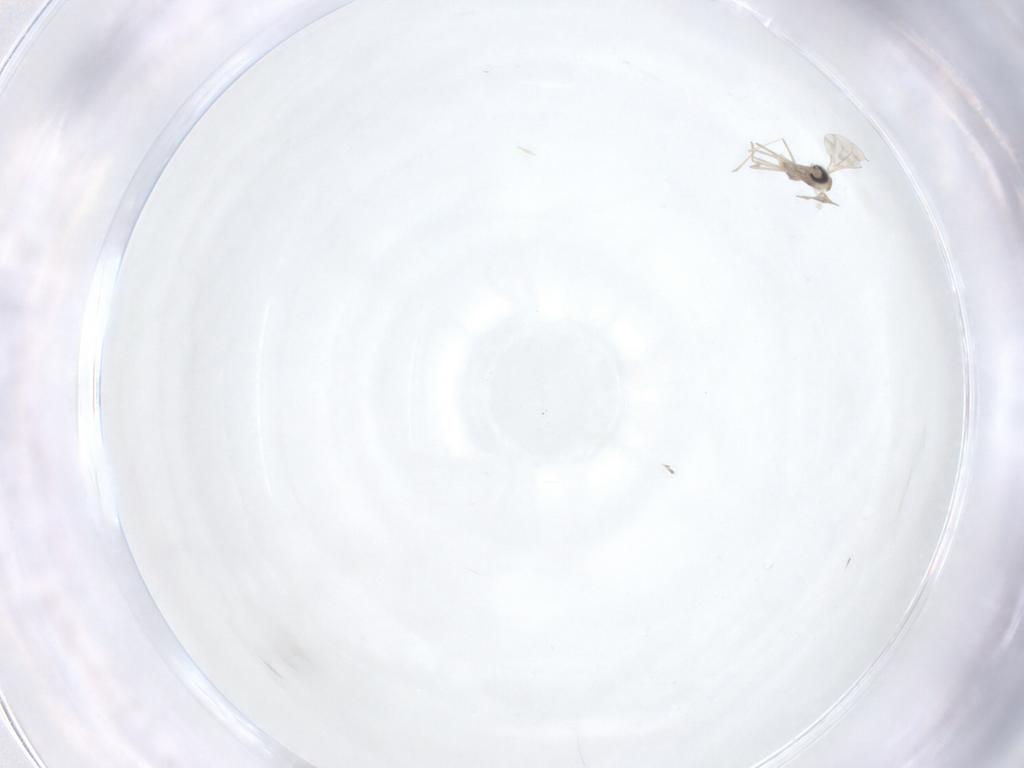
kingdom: Animalia
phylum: Arthropoda
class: Insecta
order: Diptera
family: Cecidomyiidae
